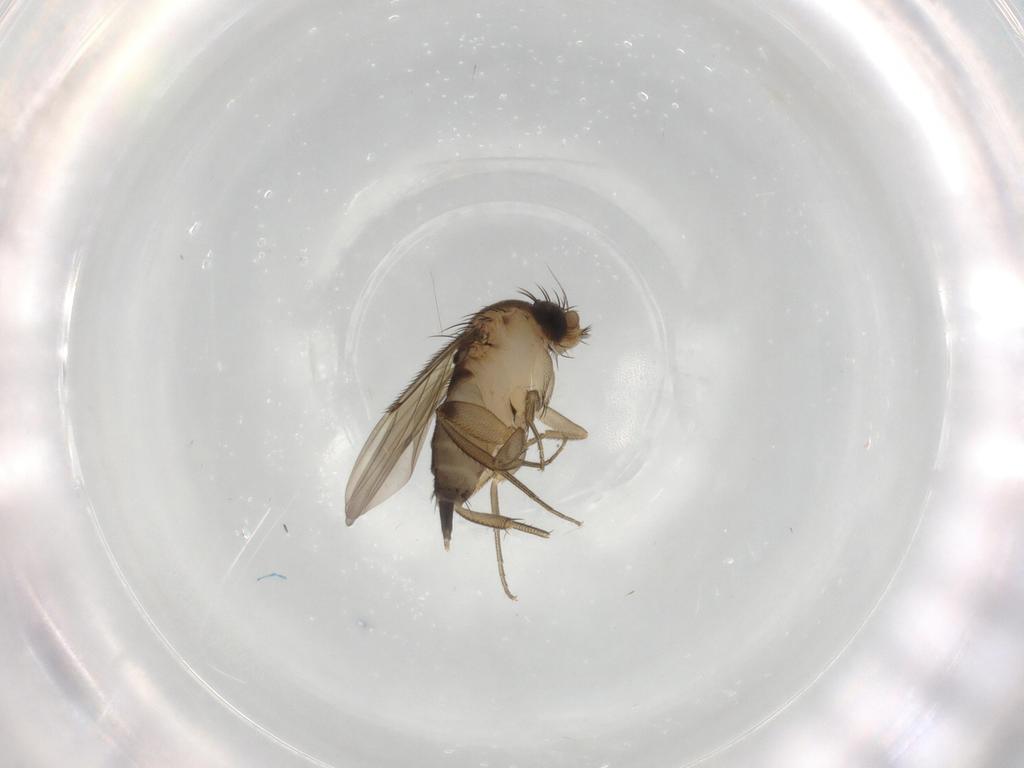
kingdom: Animalia
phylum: Arthropoda
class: Insecta
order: Diptera
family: Phoridae
